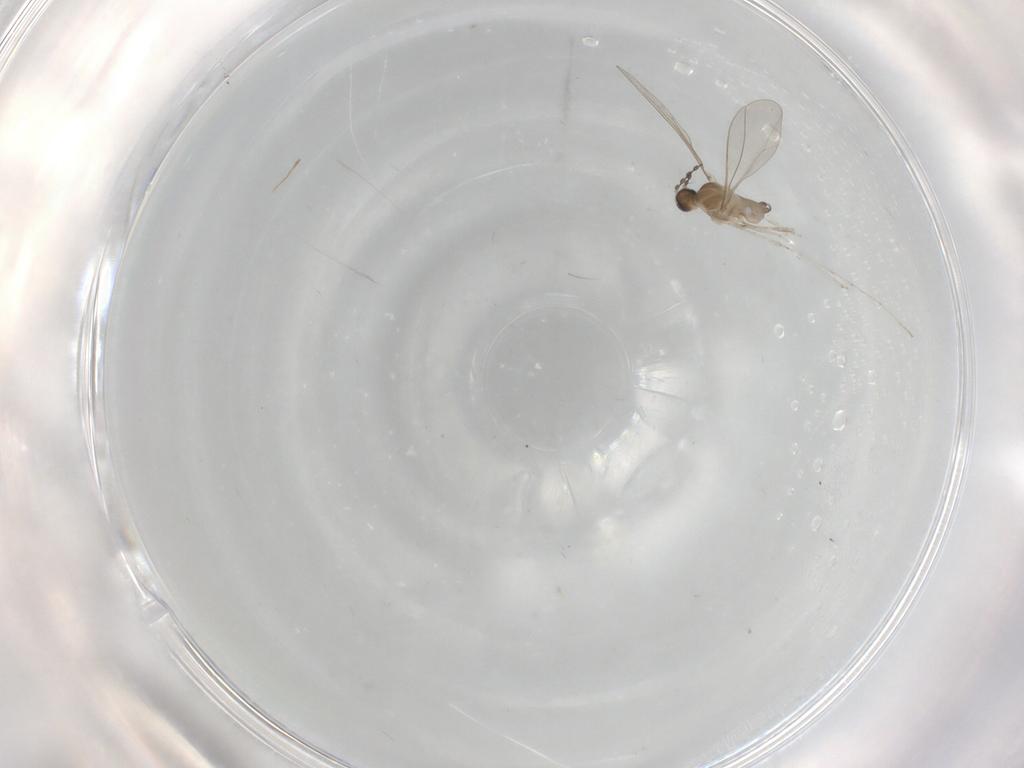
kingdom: Animalia
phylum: Arthropoda
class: Insecta
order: Diptera
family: Cecidomyiidae
